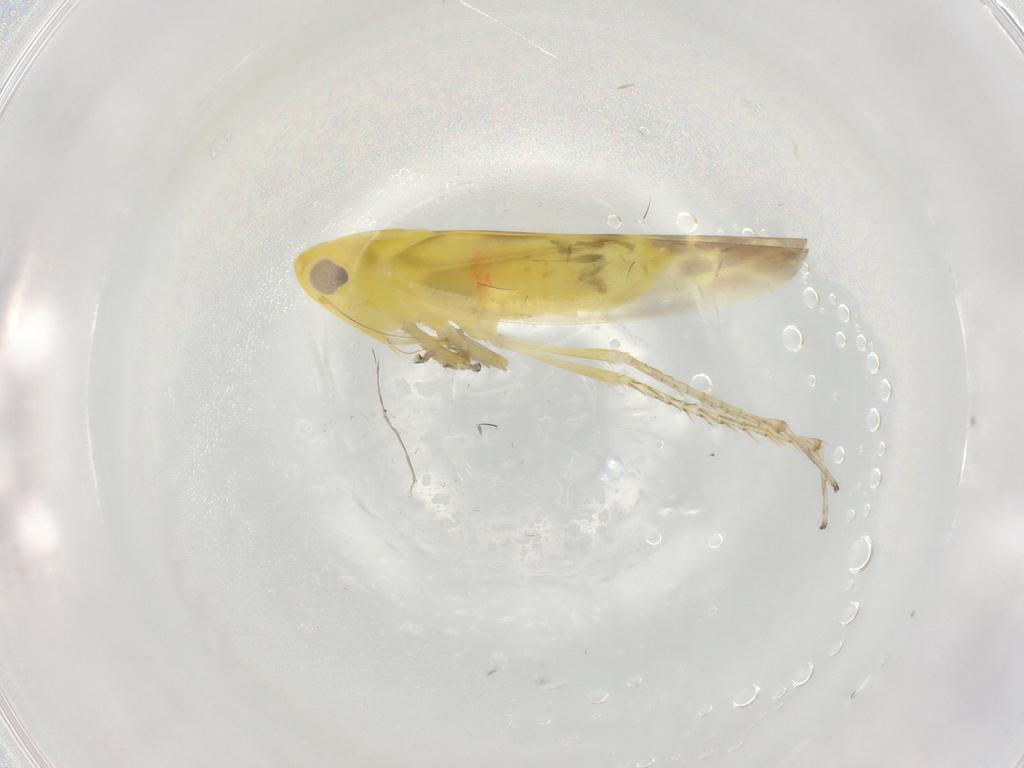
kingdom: Animalia
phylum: Arthropoda
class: Insecta
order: Hemiptera
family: Cicadellidae
